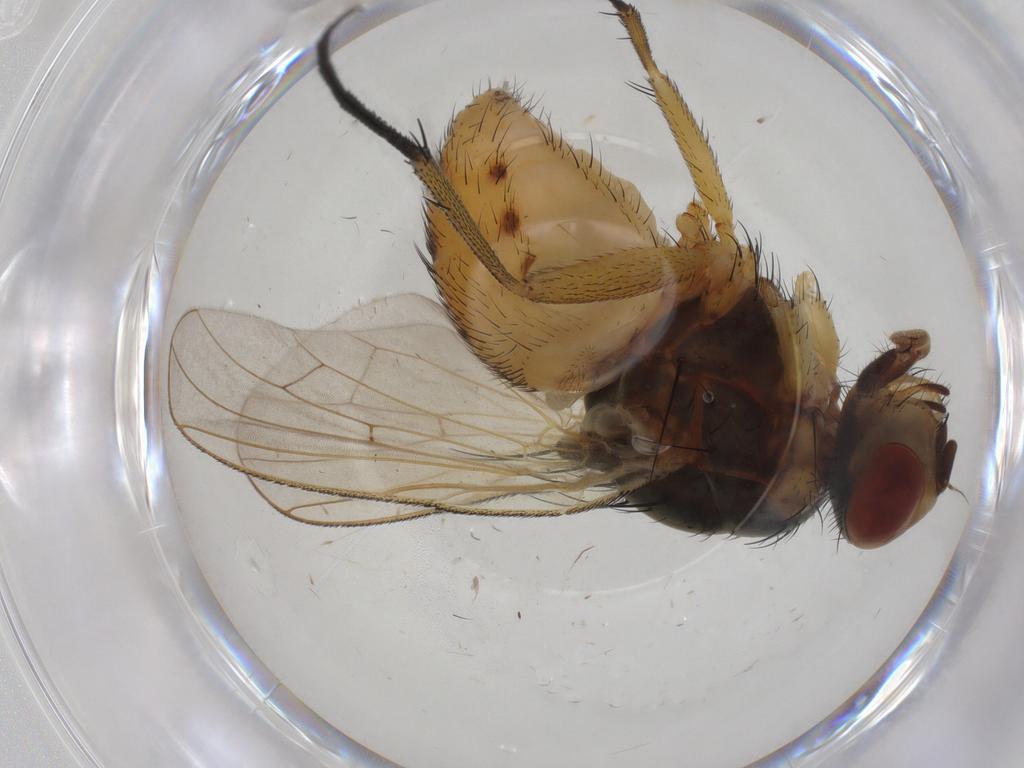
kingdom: Animalia
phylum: Arthropoda
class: Insecta
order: Diptera
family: Anthomyiidae
